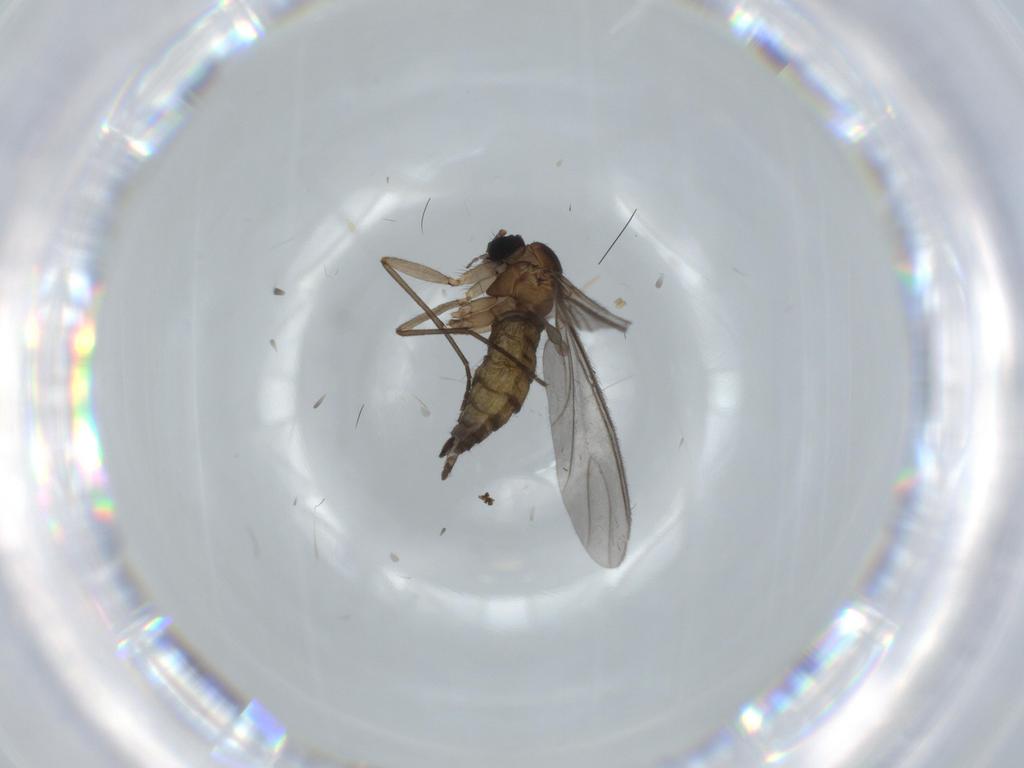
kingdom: Animalia
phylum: Arthropoda
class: Insecta
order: Diptera
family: Sciaridae
